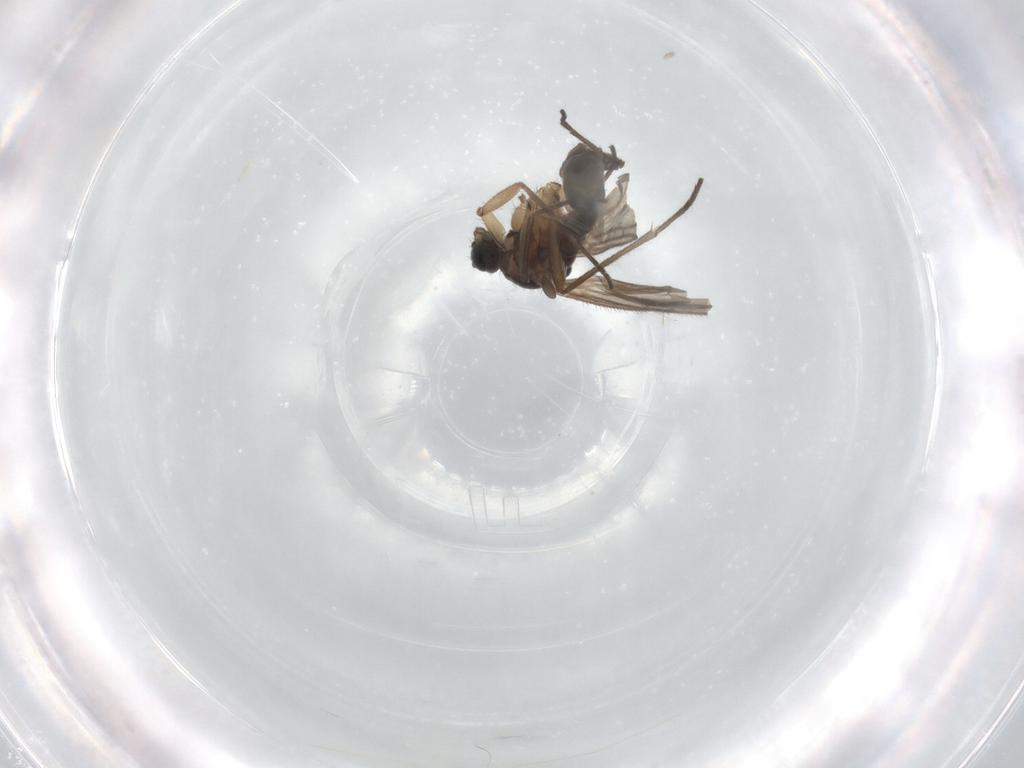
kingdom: Animalia
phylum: Arthropoda
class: Insecta
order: Diptera
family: Sciaridae
